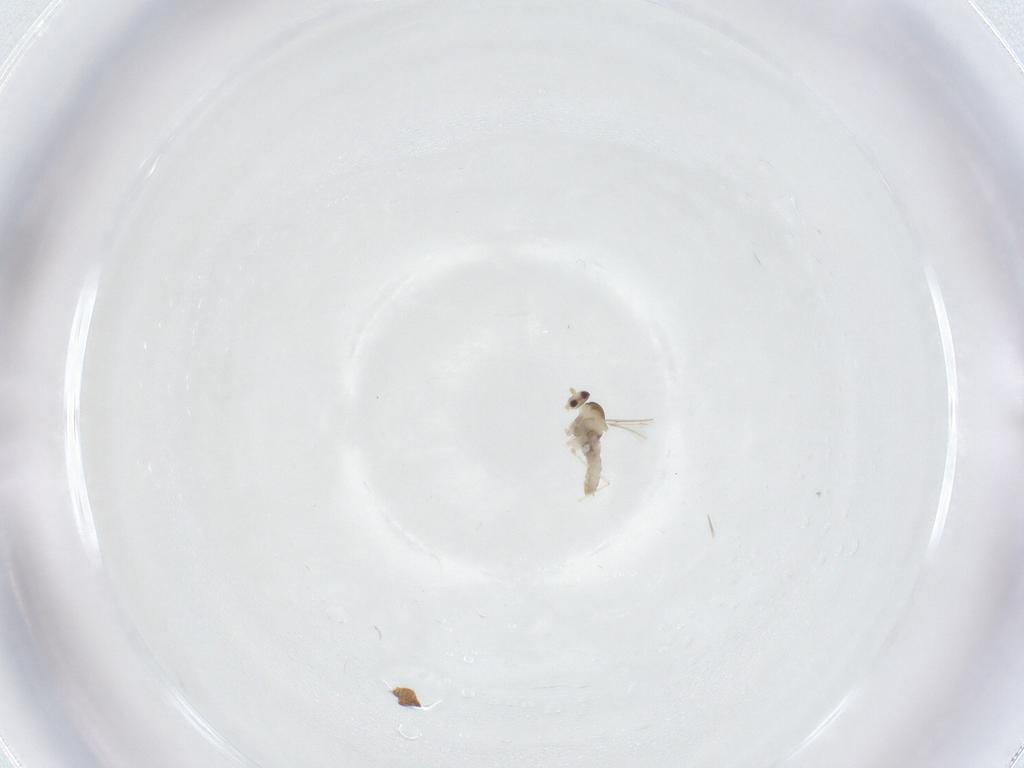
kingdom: Animalia
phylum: Arthropoda
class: Insecta
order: Diptera
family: Cecidomyiidae
